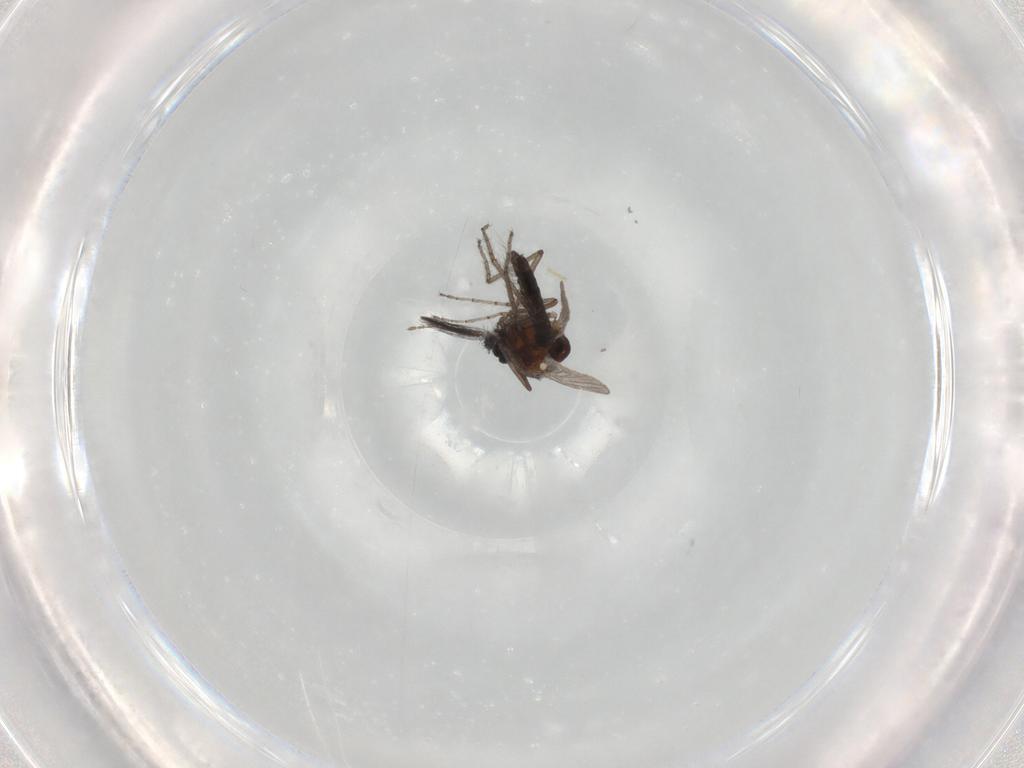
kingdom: Animalia
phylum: Arthropoda
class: Insecta
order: Diptera
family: Ceratopogonidae
